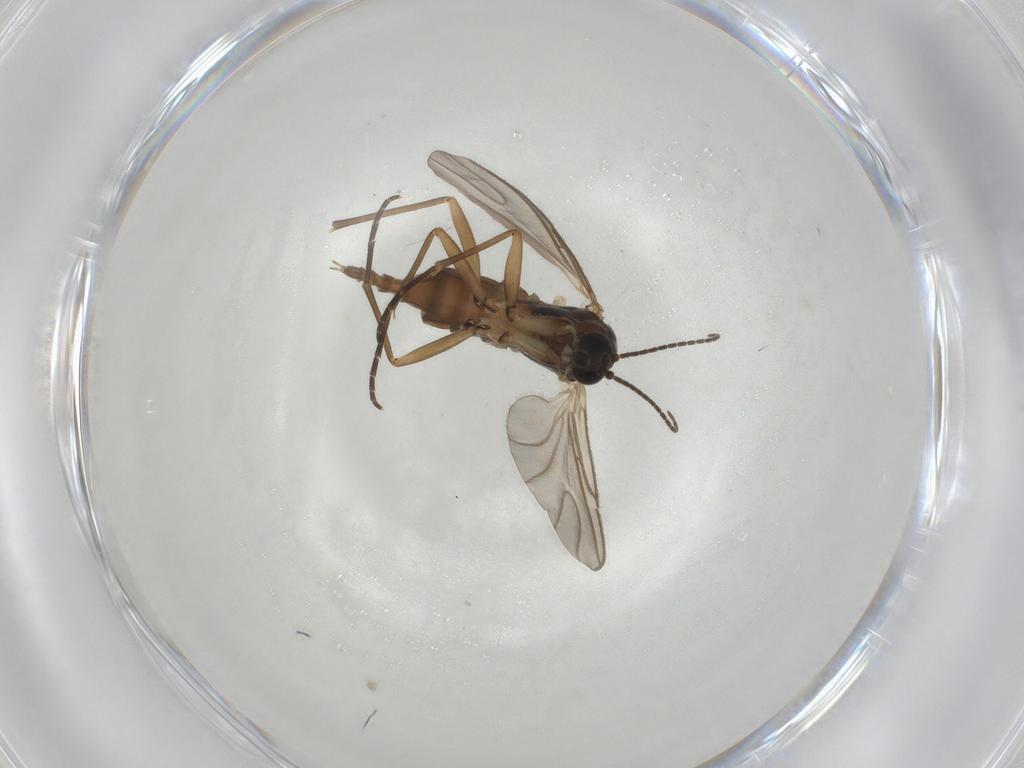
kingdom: Animalia
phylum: Arthropoda
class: Insecta
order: Diptera
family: Sciaridae
